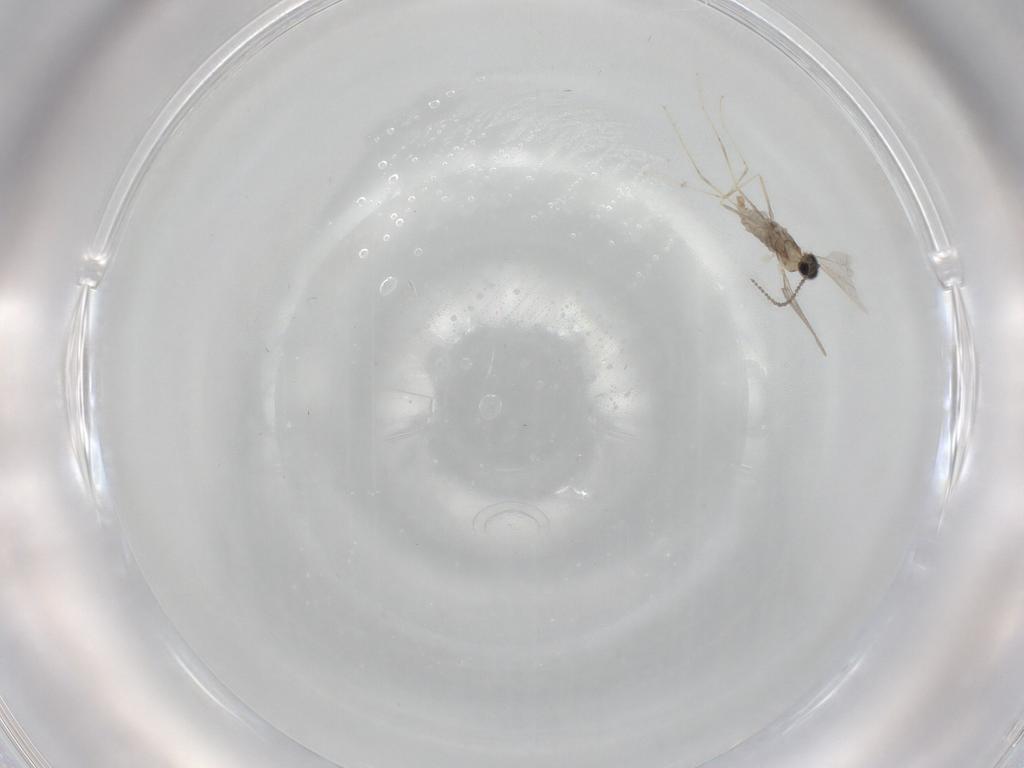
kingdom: Animalia
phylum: Arthropoda
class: Insecta
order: Diptera
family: Cecidomyiidae
